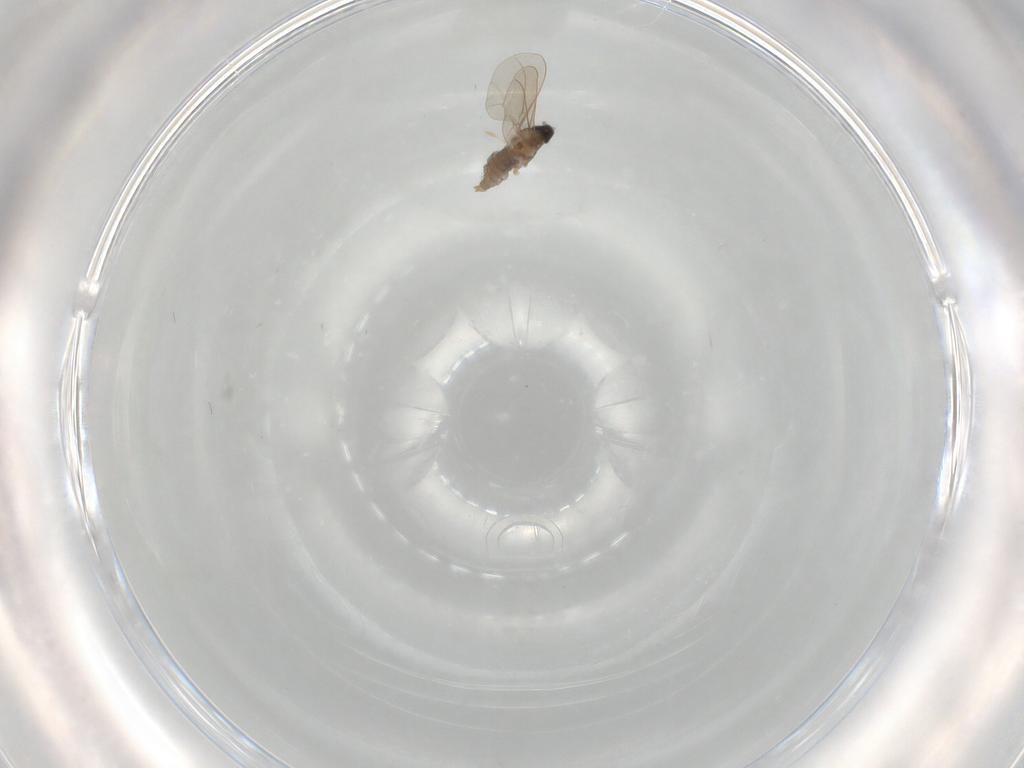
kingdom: Animalia
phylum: Arthropoda
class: Insecta
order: Diptera
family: Cecidomyiidae
